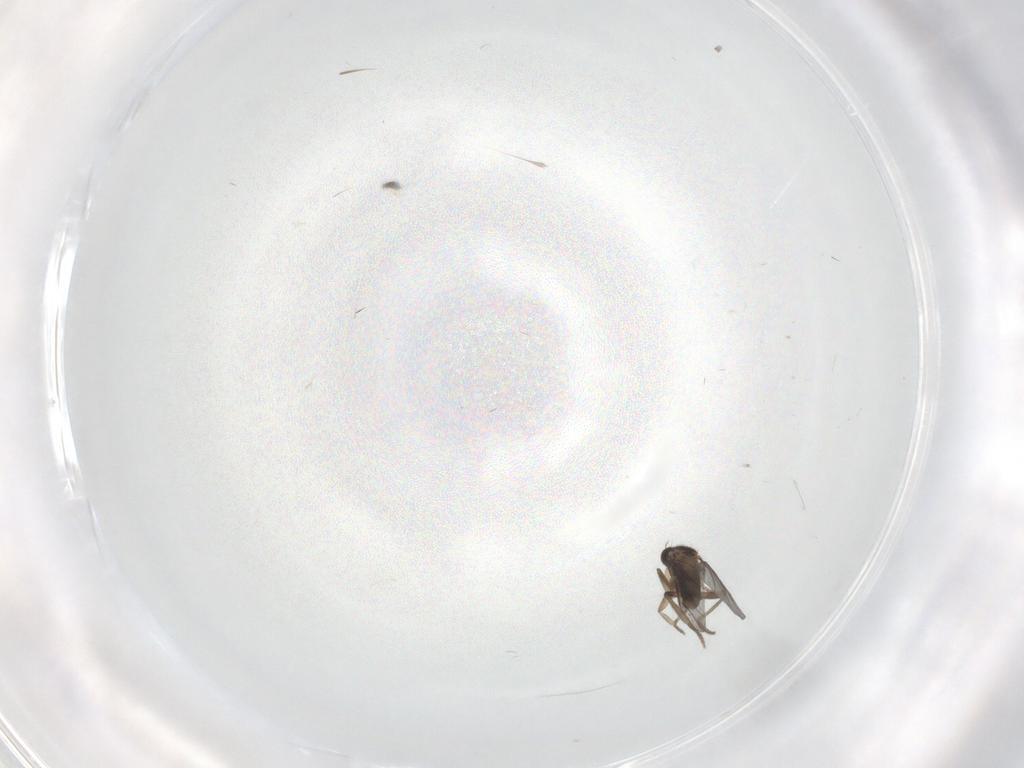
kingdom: Animalia
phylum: Arthropoda
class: Insecta
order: Diptera
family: Cecidomyiidae
